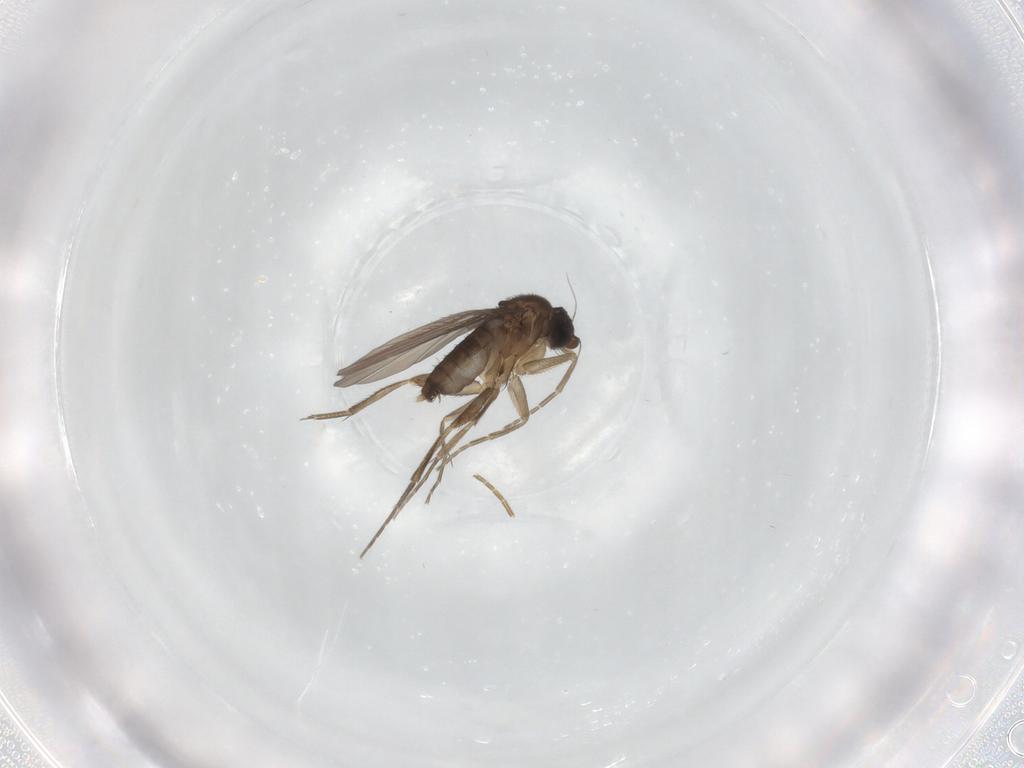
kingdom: Animalia
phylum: Arthropoda
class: Insecta
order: Diptera
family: Phoridae
